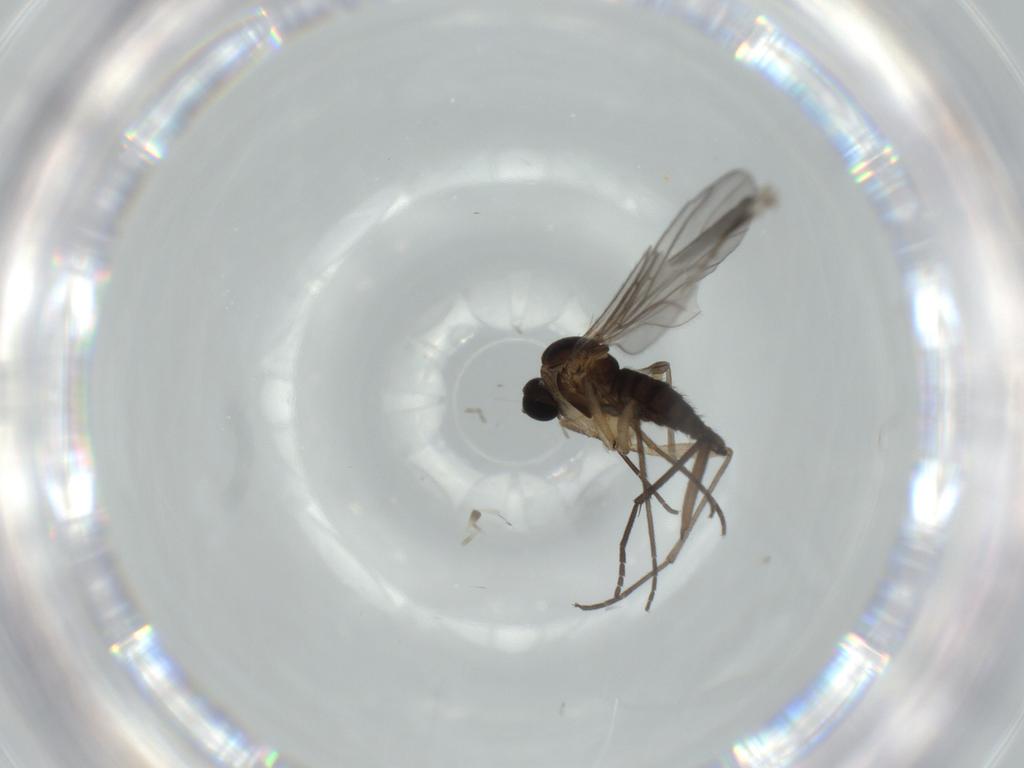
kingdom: Animalia
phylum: Arthropoda
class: Insecta
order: Diptera
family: Sciaridae
